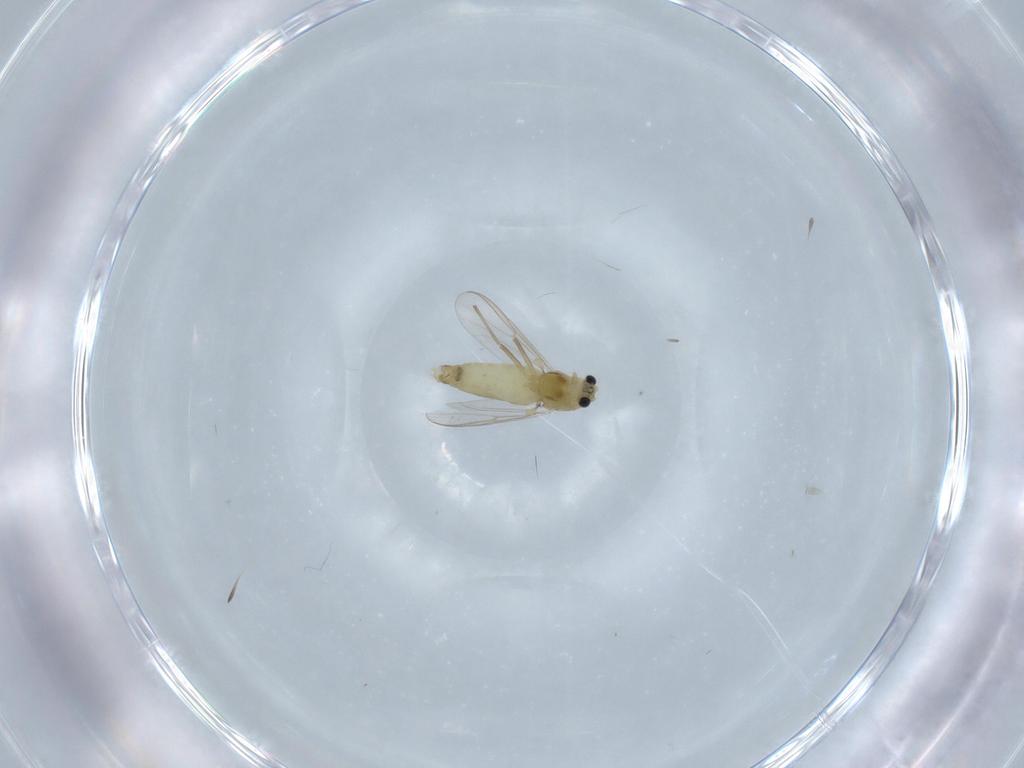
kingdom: Animalia
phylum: Arthropoda
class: Insecta
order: Diptera
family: Chironomidae
